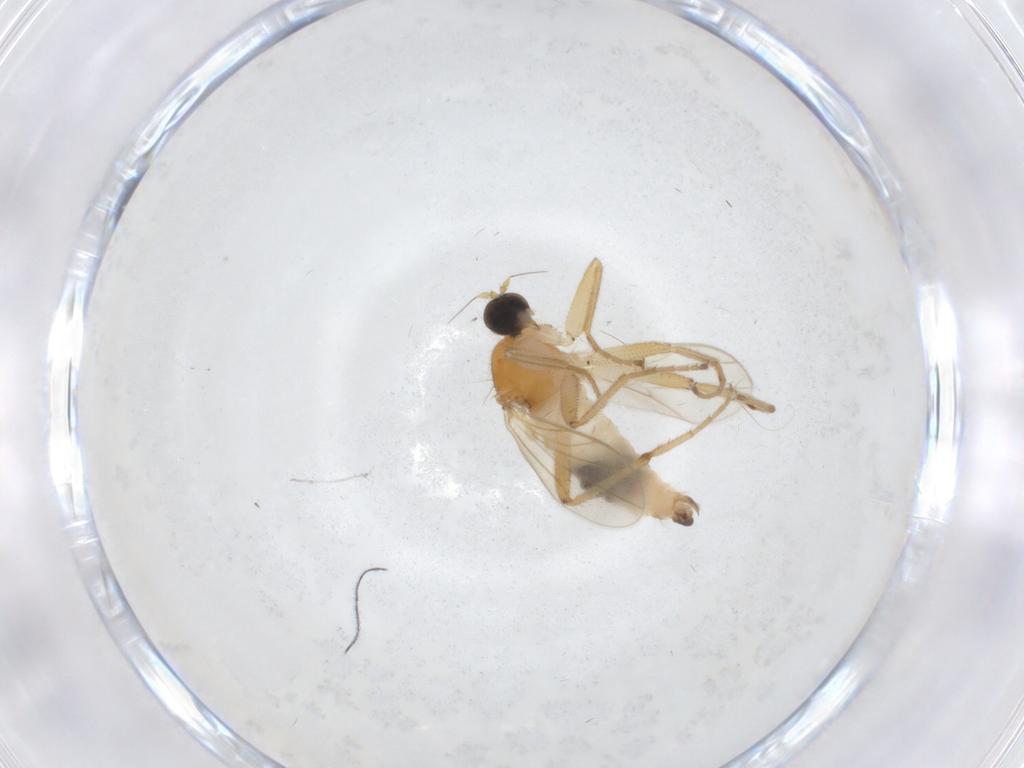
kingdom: Animalia
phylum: Arthropoda
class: Insecta
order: Diptera
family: Hybotidae
